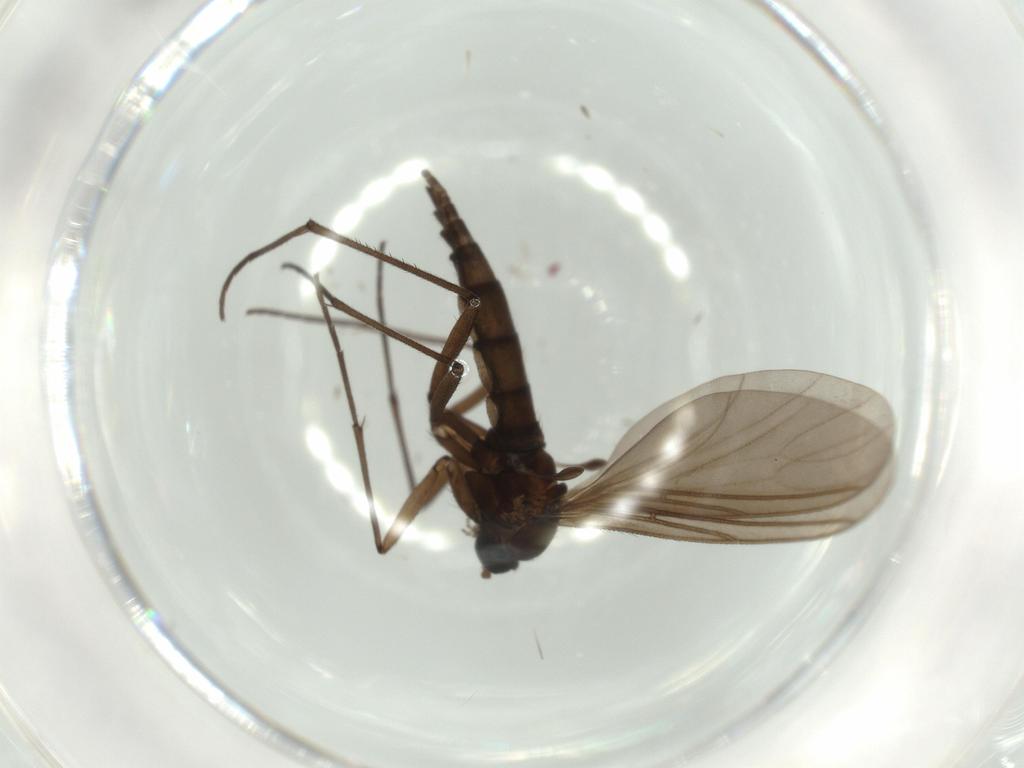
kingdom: Animalia
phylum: Arthropoda
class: Insecta
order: Diptera
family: Sciaridae
